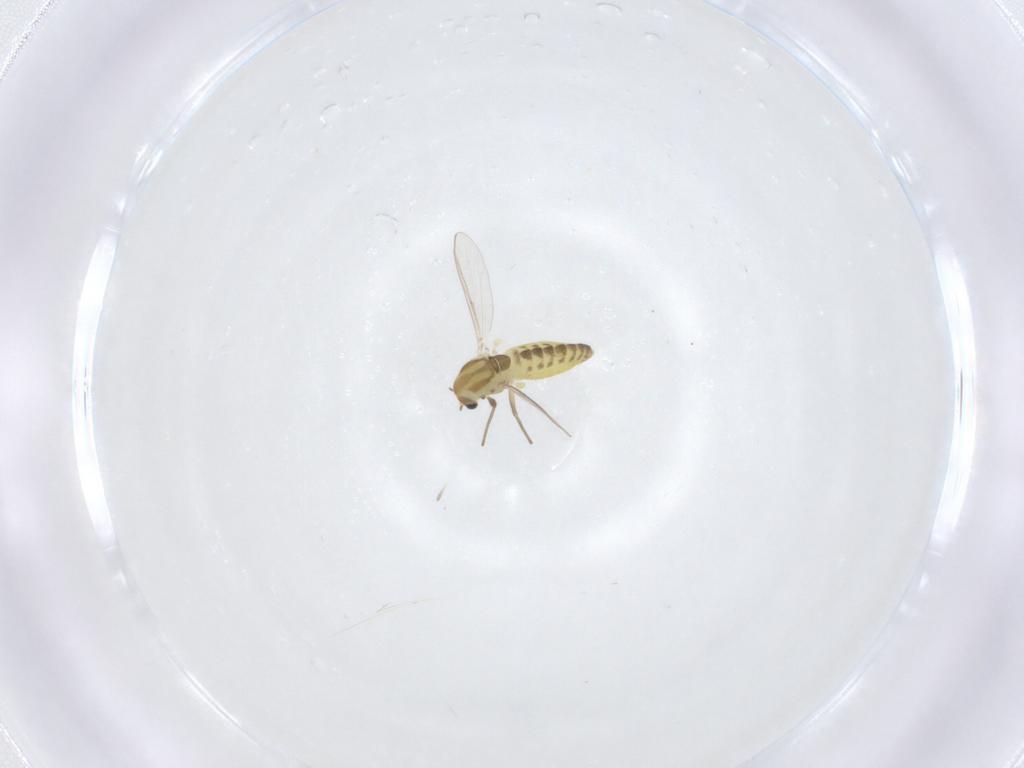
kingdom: Animalia
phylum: Arthropoda
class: Insecta
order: Diptera
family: Chironomidae
